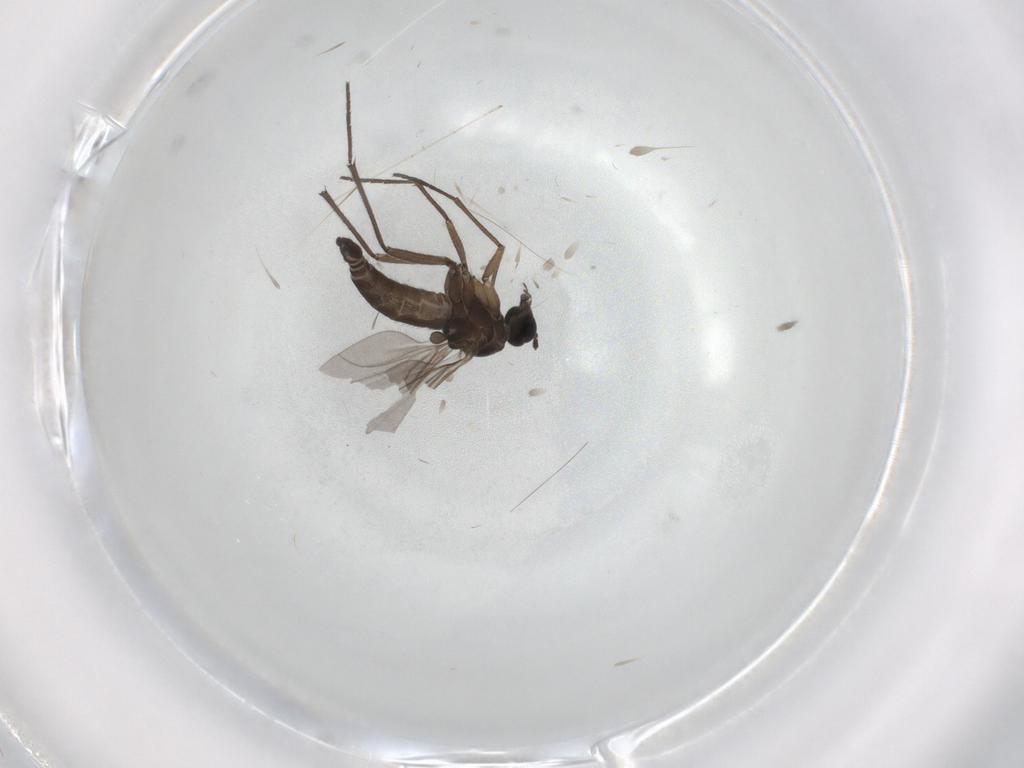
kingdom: Animalia
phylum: Arthropoda
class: Insecta
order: Diptera
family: Sciaridae
